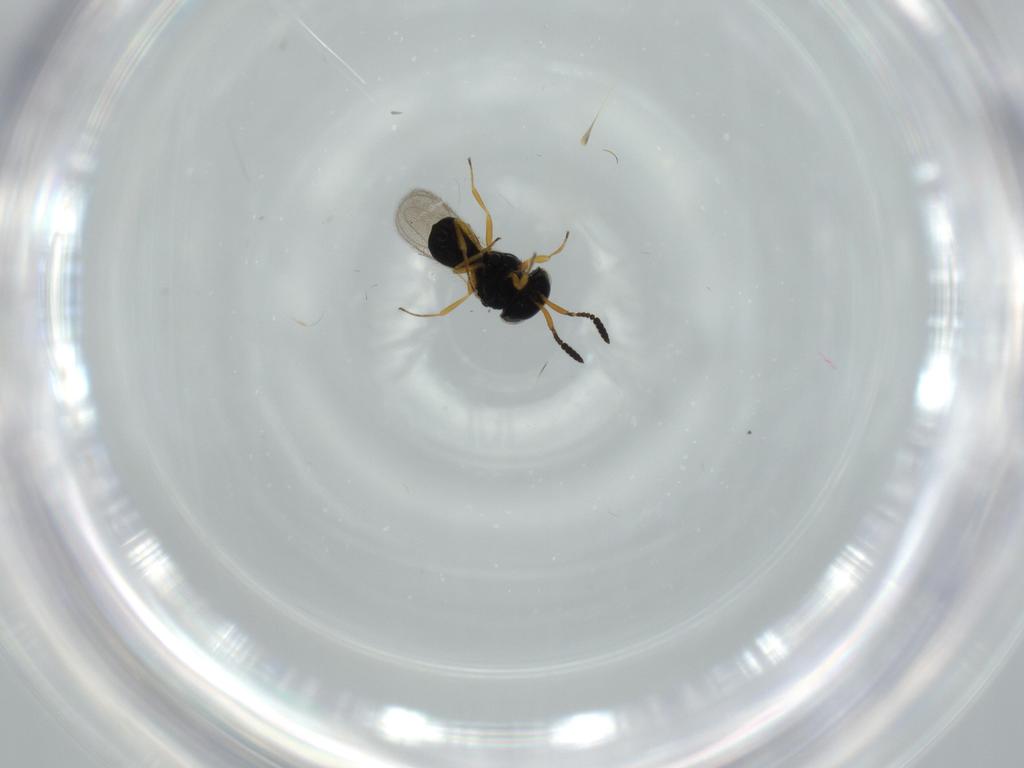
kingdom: Animalia
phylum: Arthropoda
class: Insecta
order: Hymenoptera
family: Scelionidae
